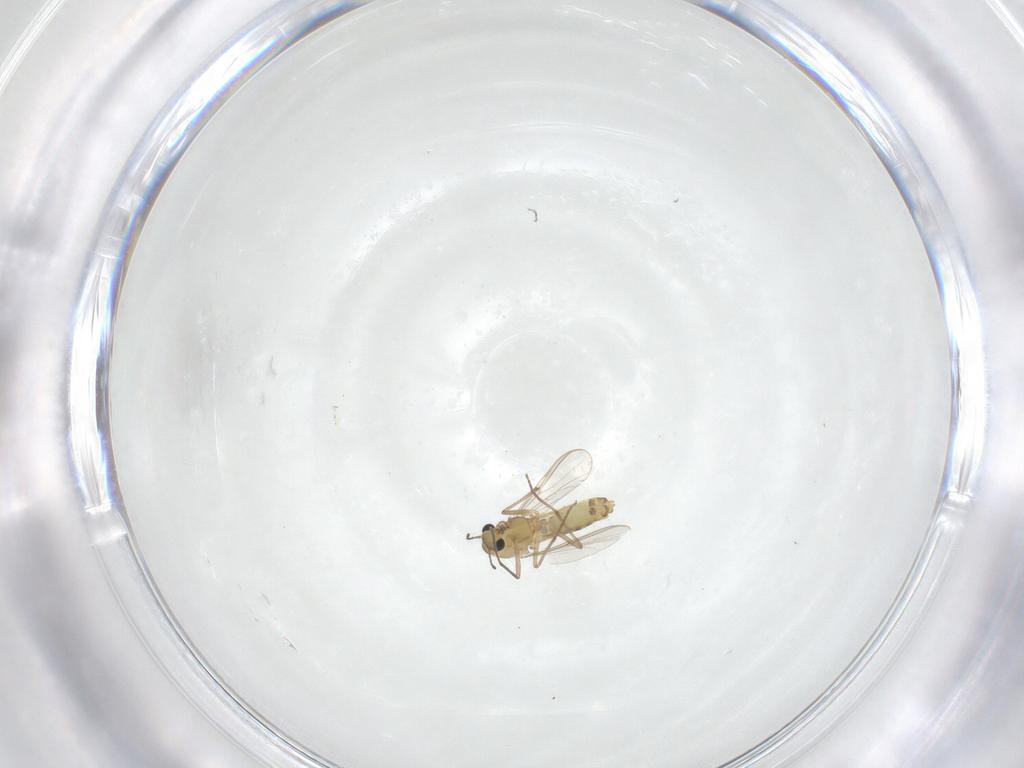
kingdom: Animalia
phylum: Arthropoda
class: Insecta
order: Diptera
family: Chironomidae
